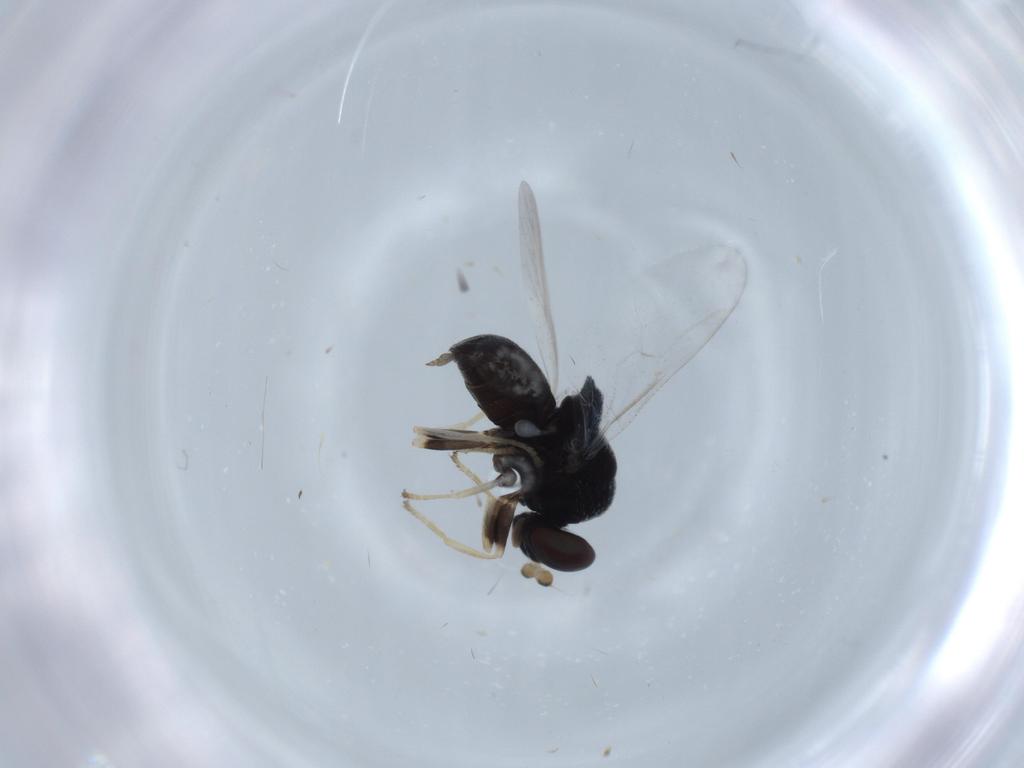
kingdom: Animalia
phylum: Arthropoda
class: Insecta
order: Diptera
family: Stratiomyidae
